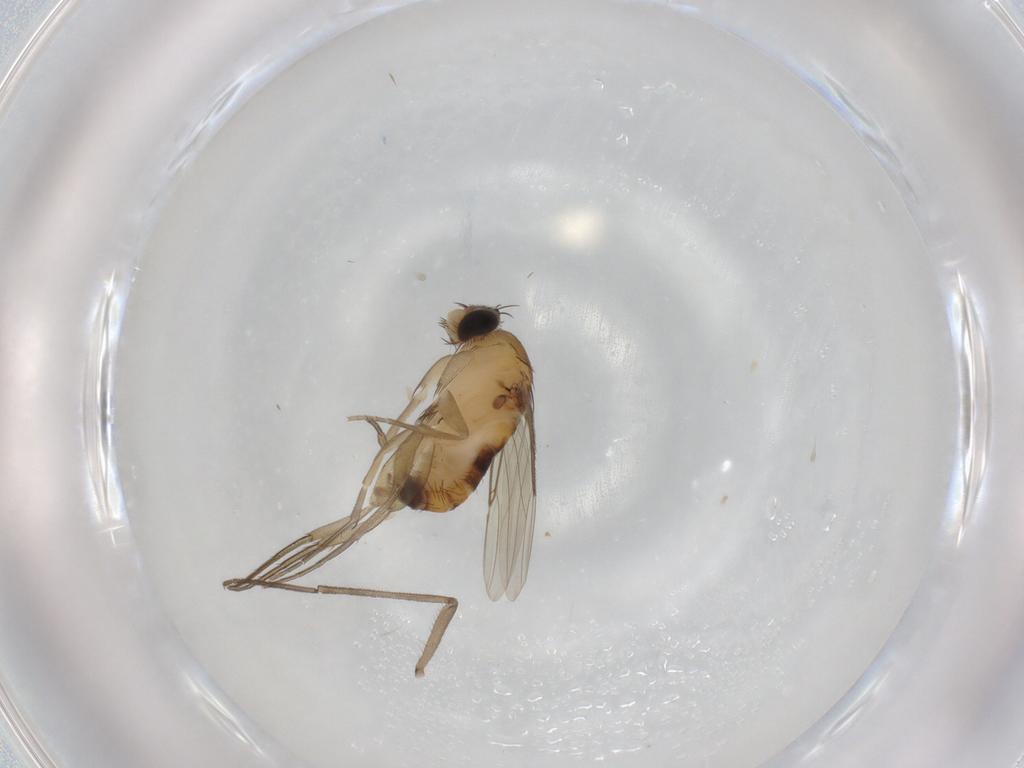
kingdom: Animalia
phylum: Arthropoda
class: Insecta
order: Diptera
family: Phoridae
